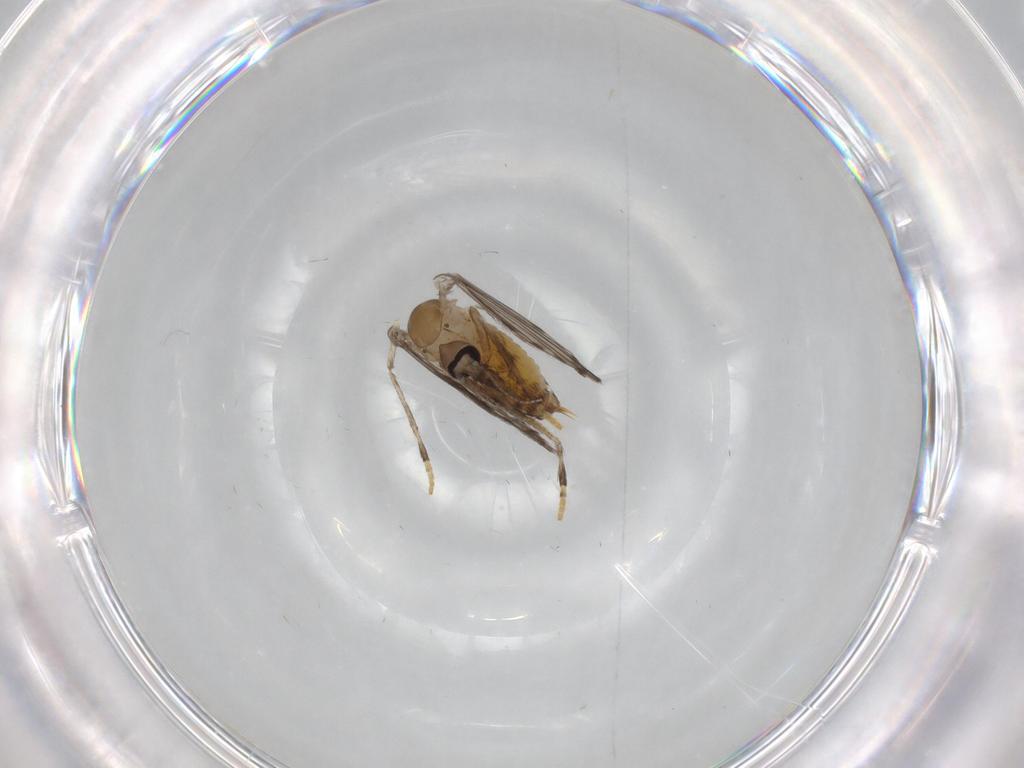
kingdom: Animalia
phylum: Arthropoda
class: Insecta
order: Diptera
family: Psychodidae
